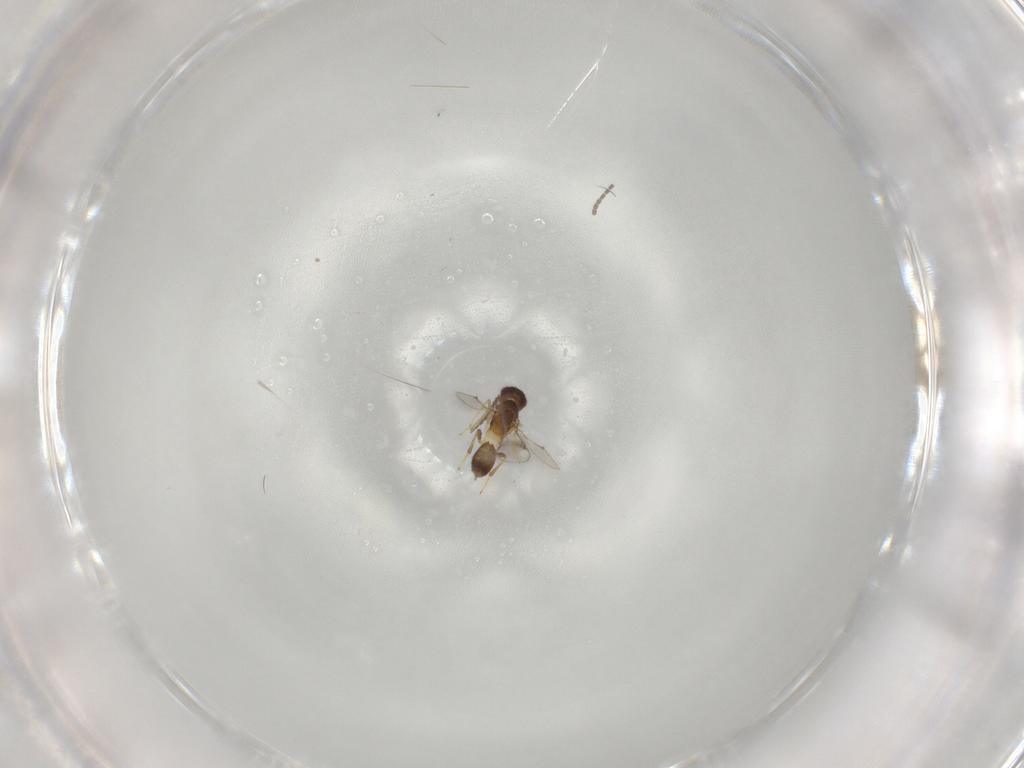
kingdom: Animalia
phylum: Arthropoda
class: Insecta
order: Diptera
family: Sciaridae
